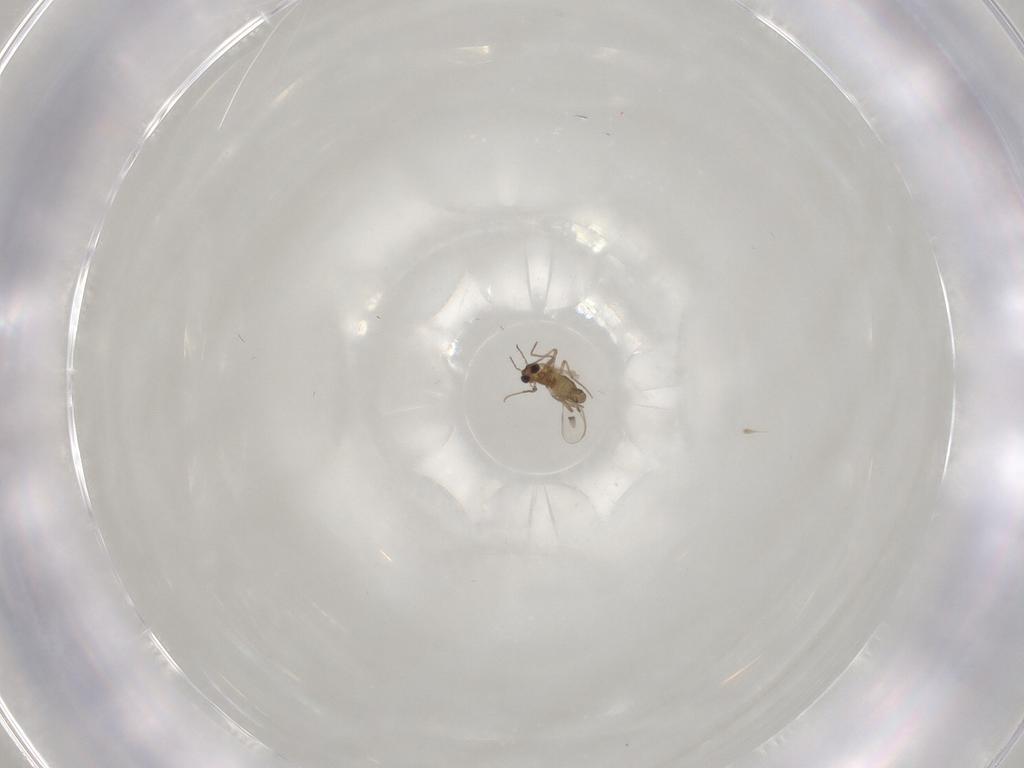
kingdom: Animalia
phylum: Arthropoda
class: Insecta
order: Diptera
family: Chironomidae
